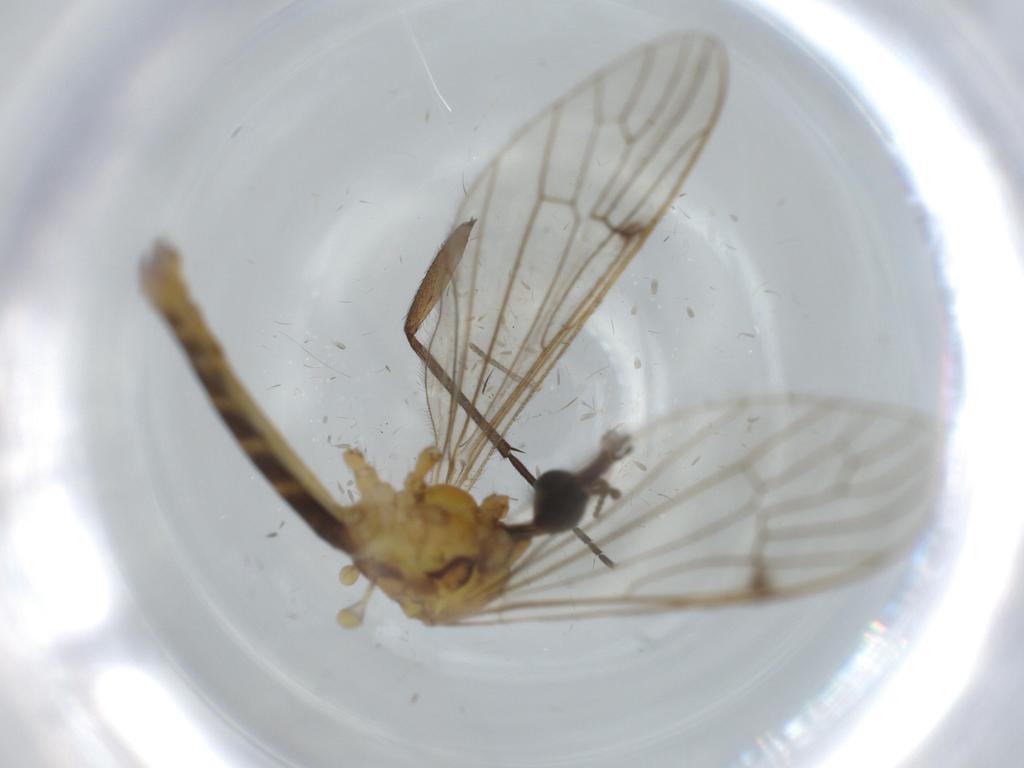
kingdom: Animalia
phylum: Arthropoda
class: Insecta
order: Diptera
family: Limoniidae
